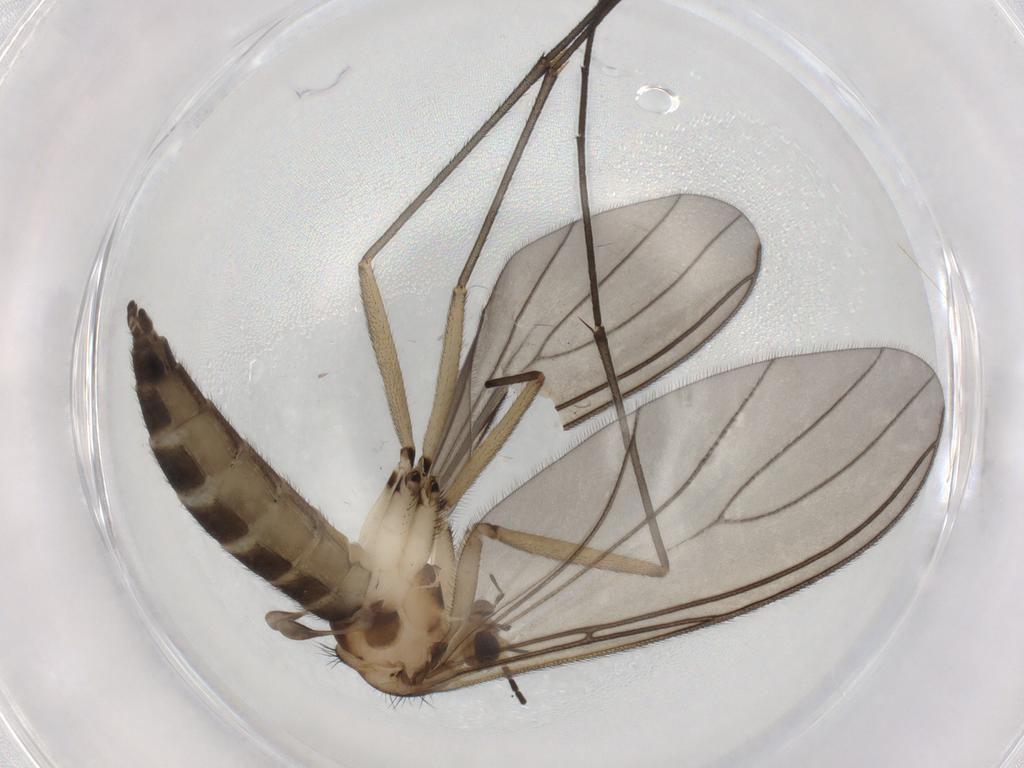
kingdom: Animalia
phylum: Arthropoda
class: Insecta
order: Diptera
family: Sciaridae
